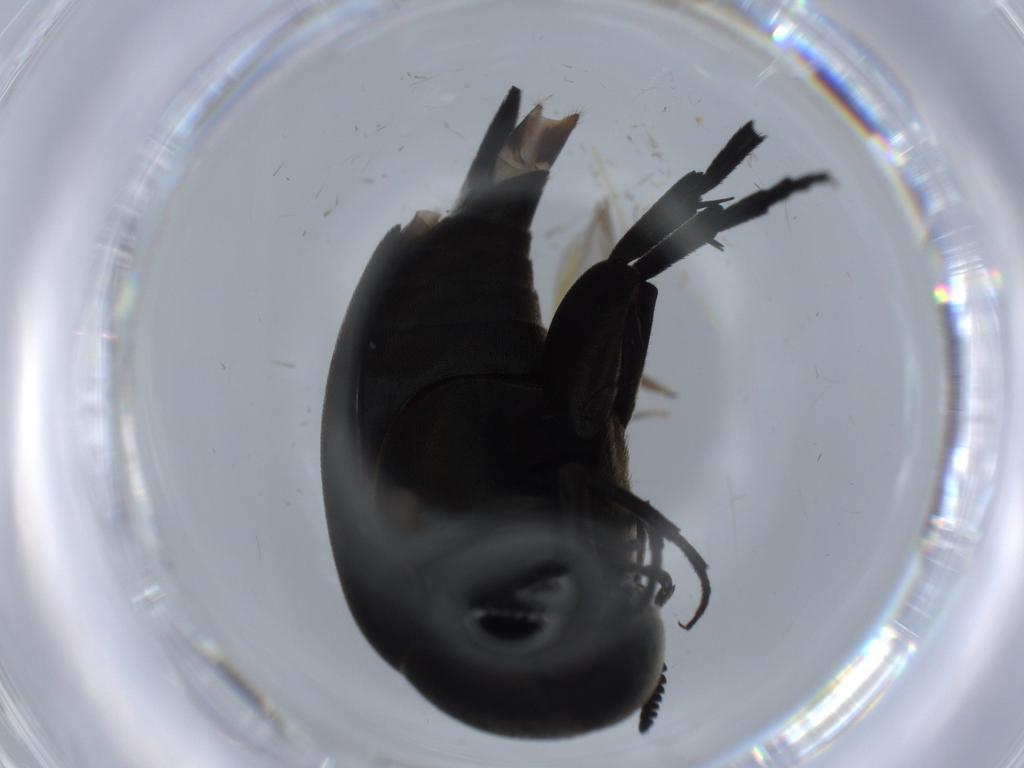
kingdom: Animalia
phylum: Arthropoda
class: Insecta
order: Coleoptera
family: Mordellidae
